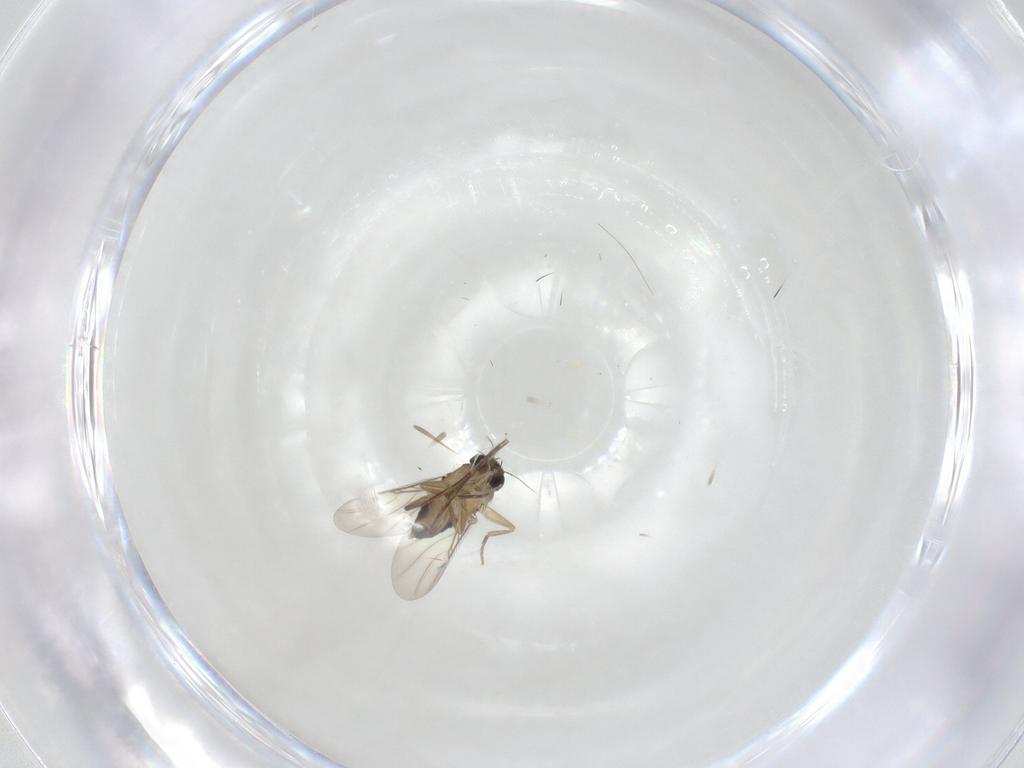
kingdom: Animalia
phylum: Arthropoda
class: Insecta
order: Diptera
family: Phoridae
